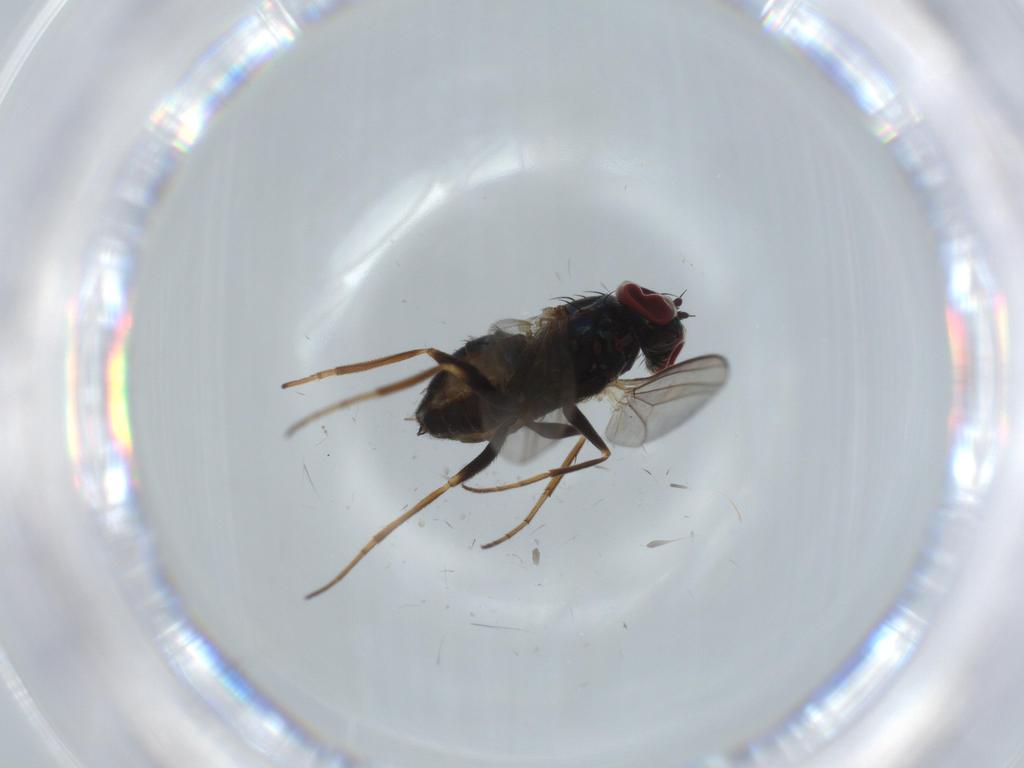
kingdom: Animalia
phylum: Arthropoda
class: Insecta
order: Diptera
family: Dolichopodidae
